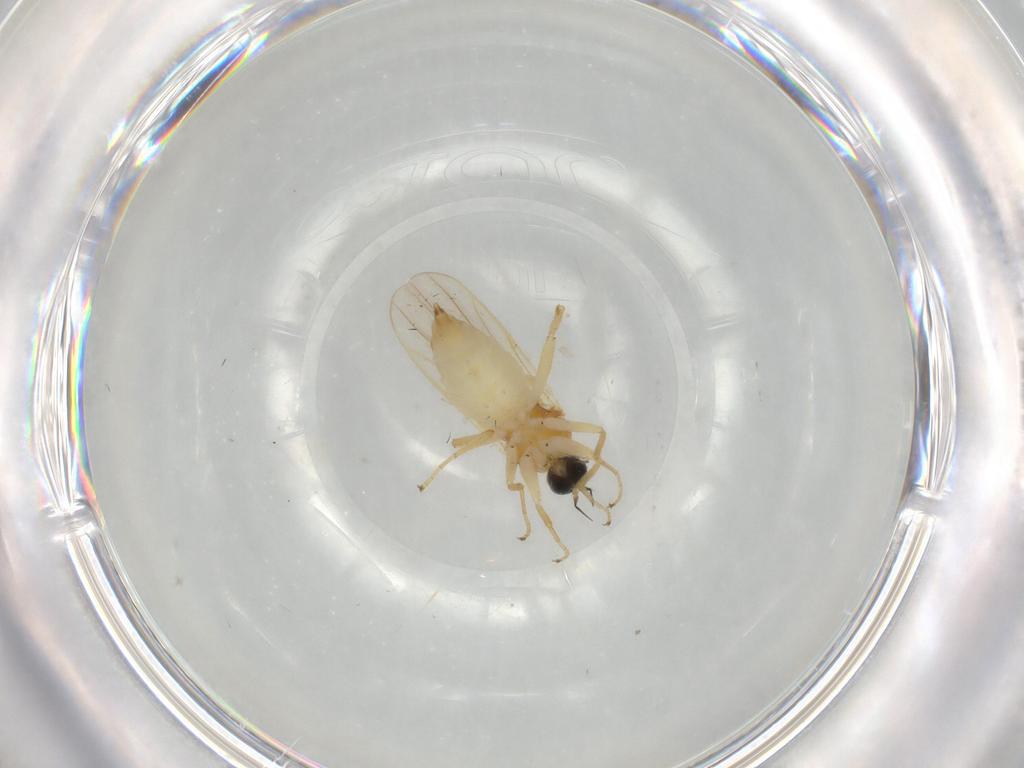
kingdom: Animalia
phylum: Arthropoda
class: Insecta
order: Diptera
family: Hybotidae
